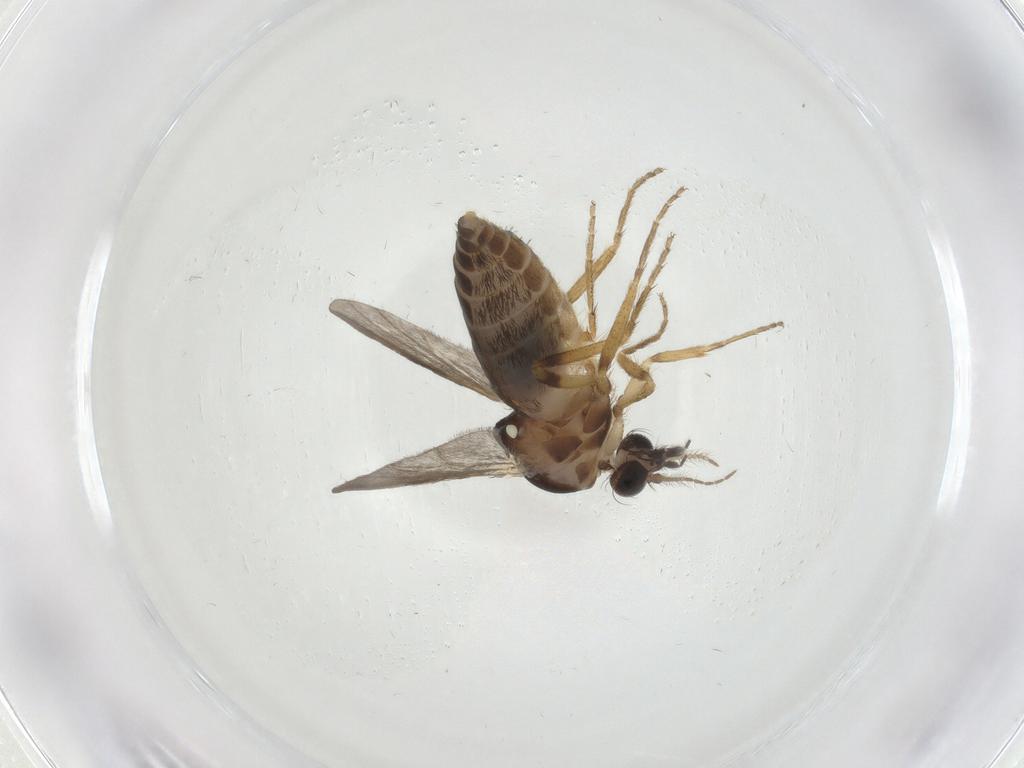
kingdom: Animalia
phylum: Arthropoda
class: Insecta
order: Diptera
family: Ceratopogonidae
